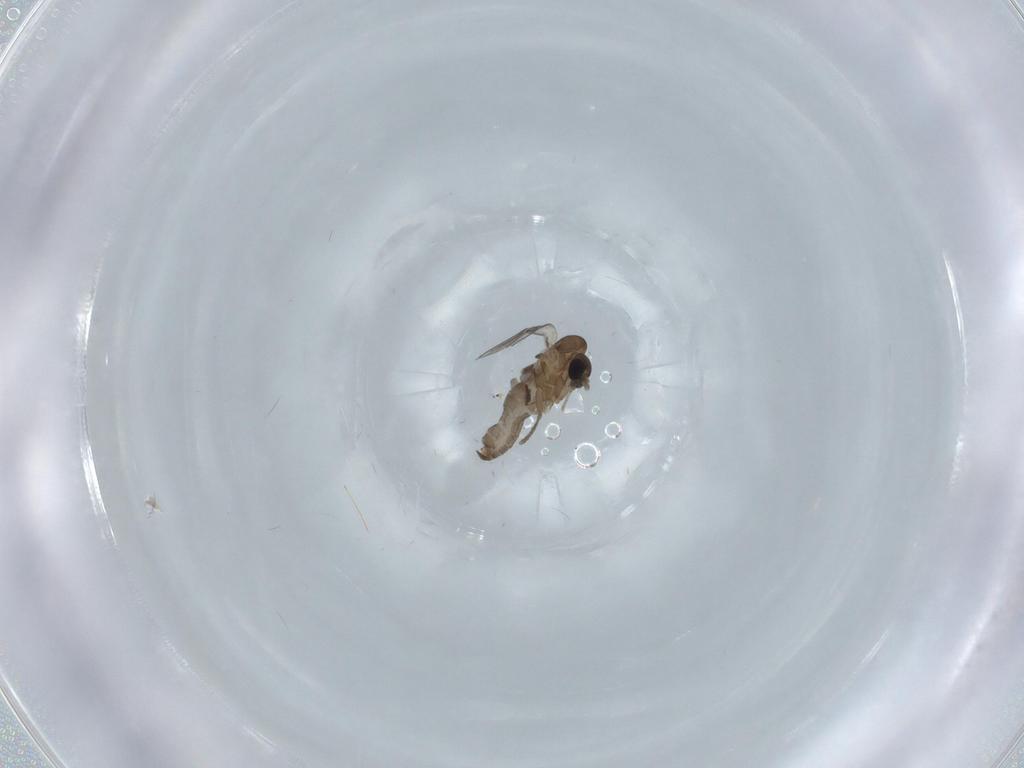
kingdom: Animalia
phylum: Arthropoda
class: Insecta
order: Diptera
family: Psychodidae
